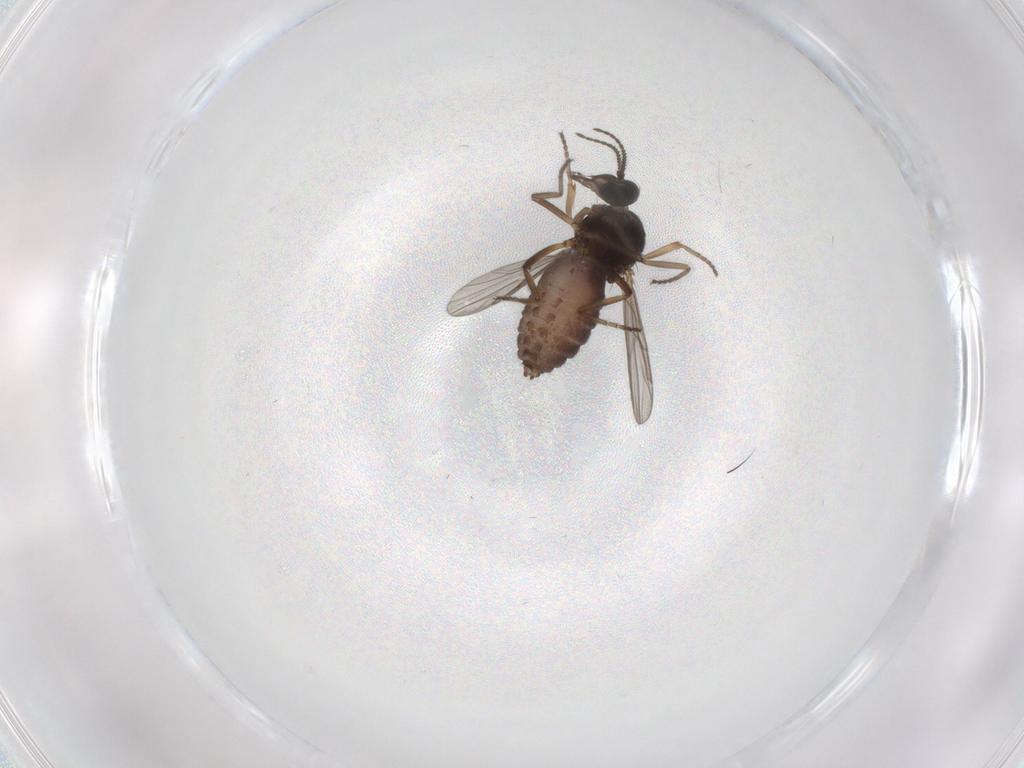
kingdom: Animalia
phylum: Arthropoda
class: Insecta
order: Diptera
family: Ceratopogonidae
